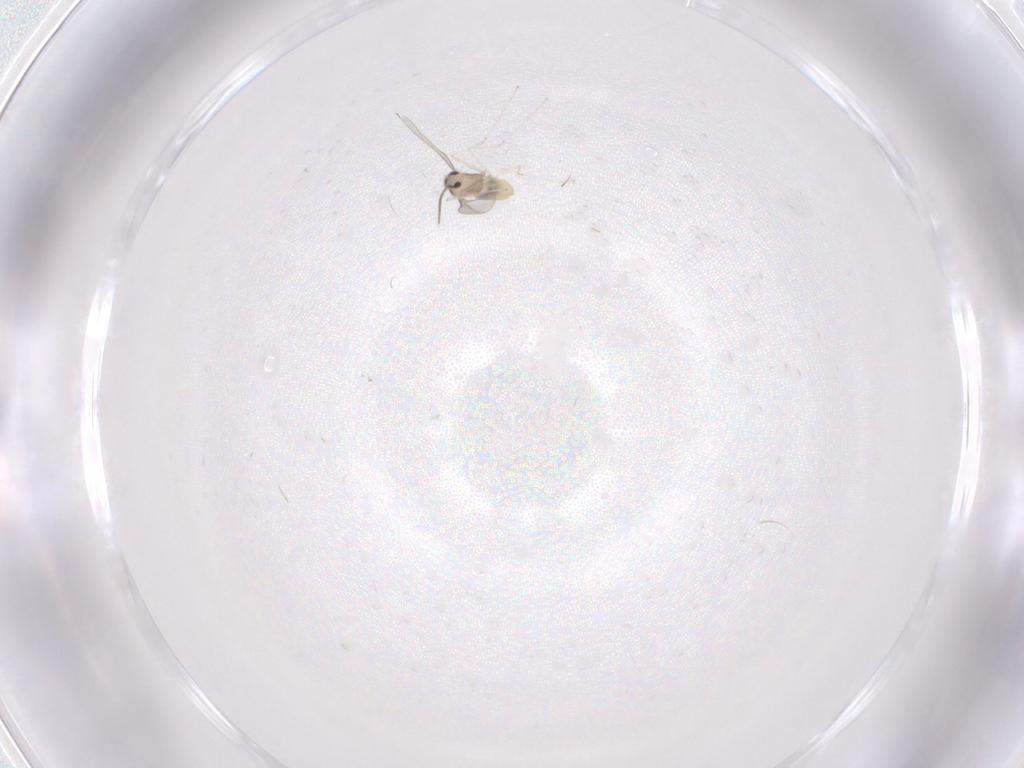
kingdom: Animalia
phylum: Arthropoda
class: Insecta
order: Diptera
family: Cecidomyiidae
